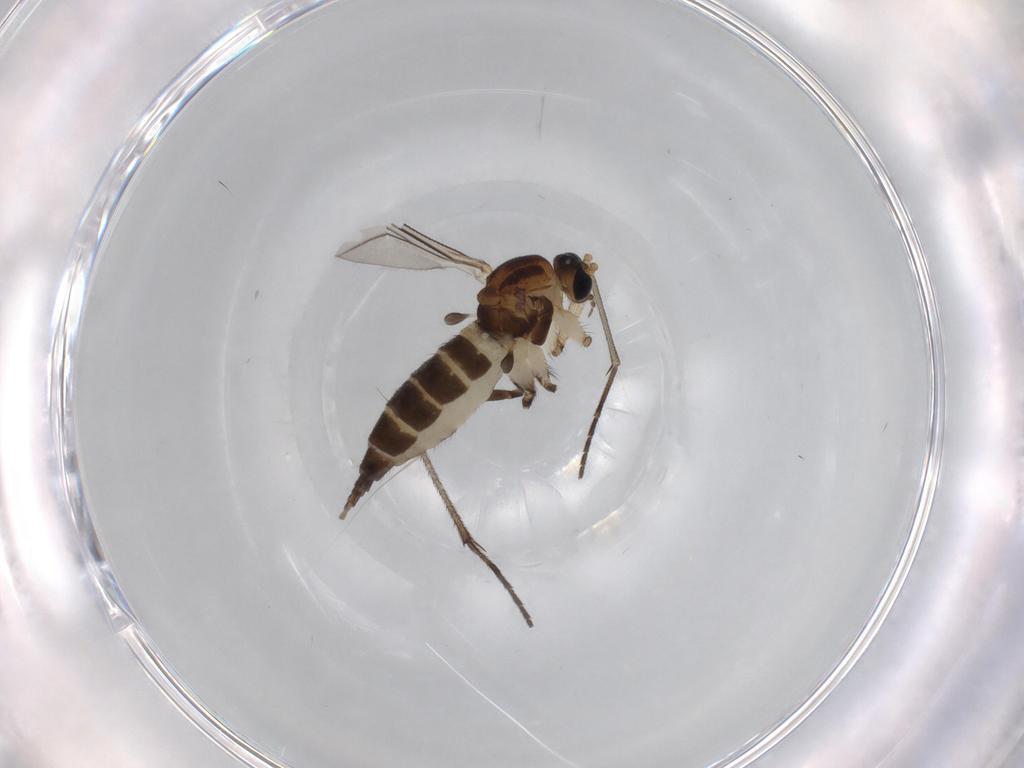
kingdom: Animalia
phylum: Arthropoda
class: Insecta
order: Diptera
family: Sciaridae
